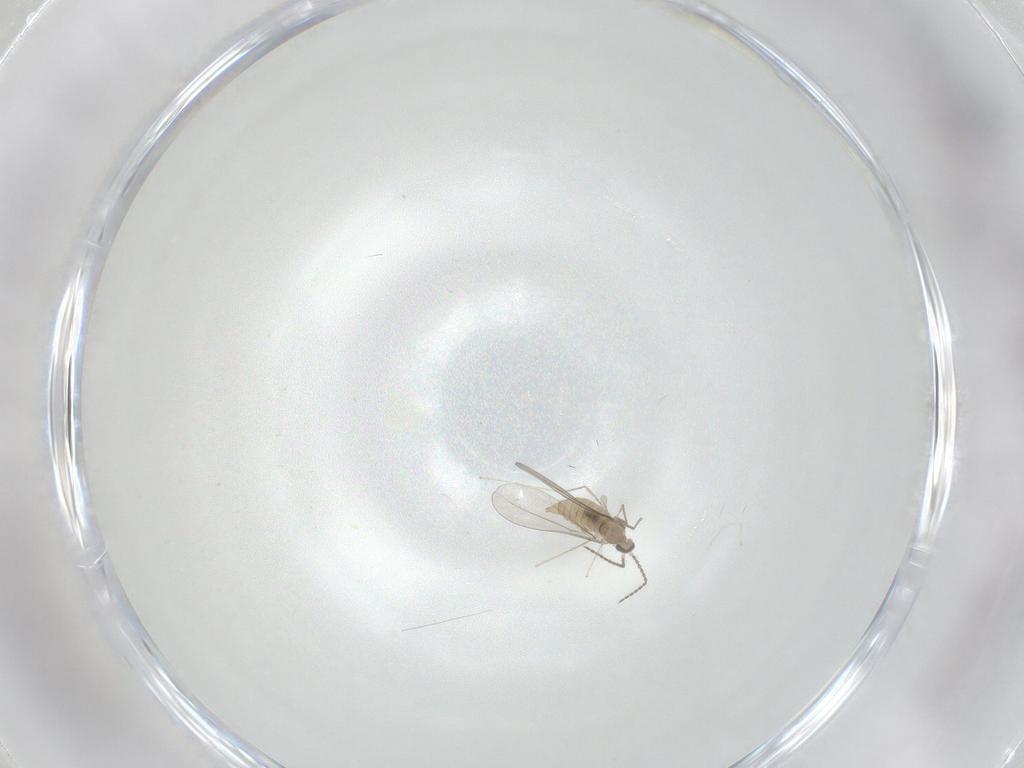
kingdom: Animalia
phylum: Arthropoda
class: Insecta
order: Diptera
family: Cecidomyiidae
